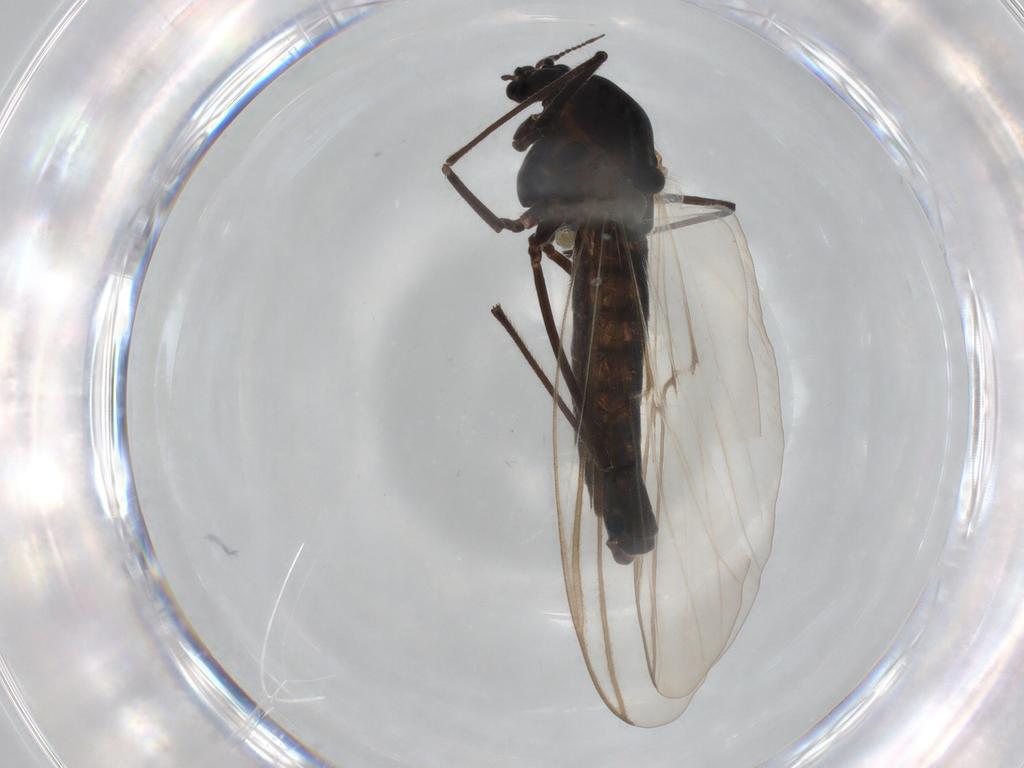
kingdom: Animalia
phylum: Arthropoda
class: Insecta
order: Diptera
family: Sciaridae
